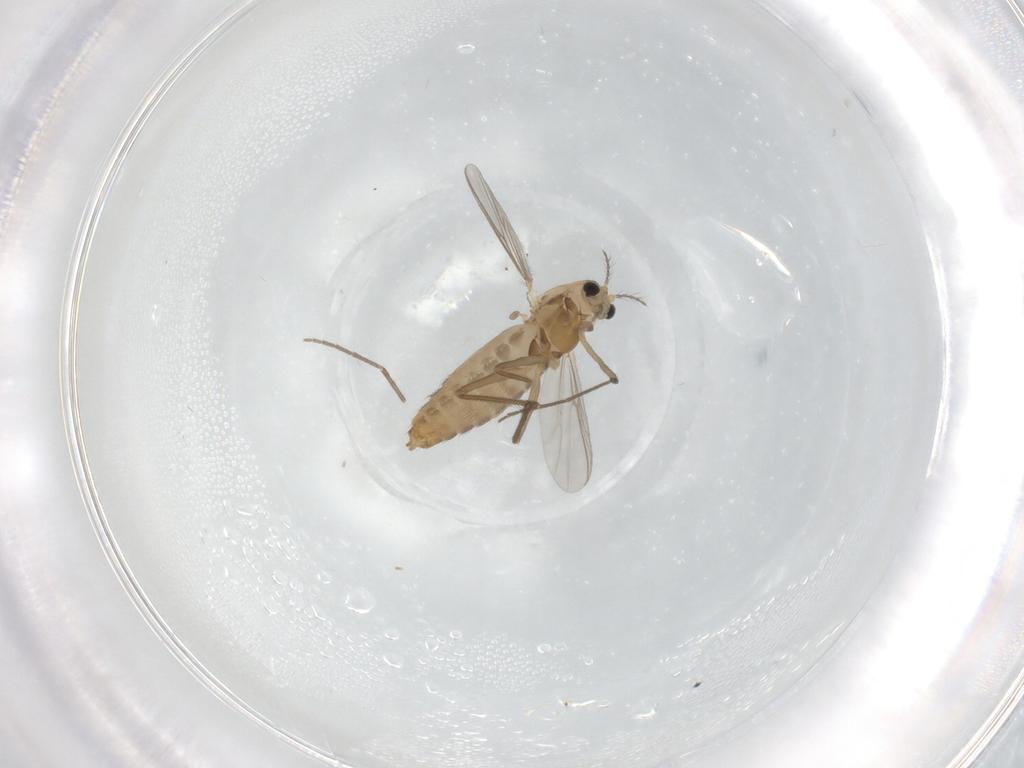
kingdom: Animalia
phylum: Arthropoda
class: Insecta
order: Diptera
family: Chironomidae
